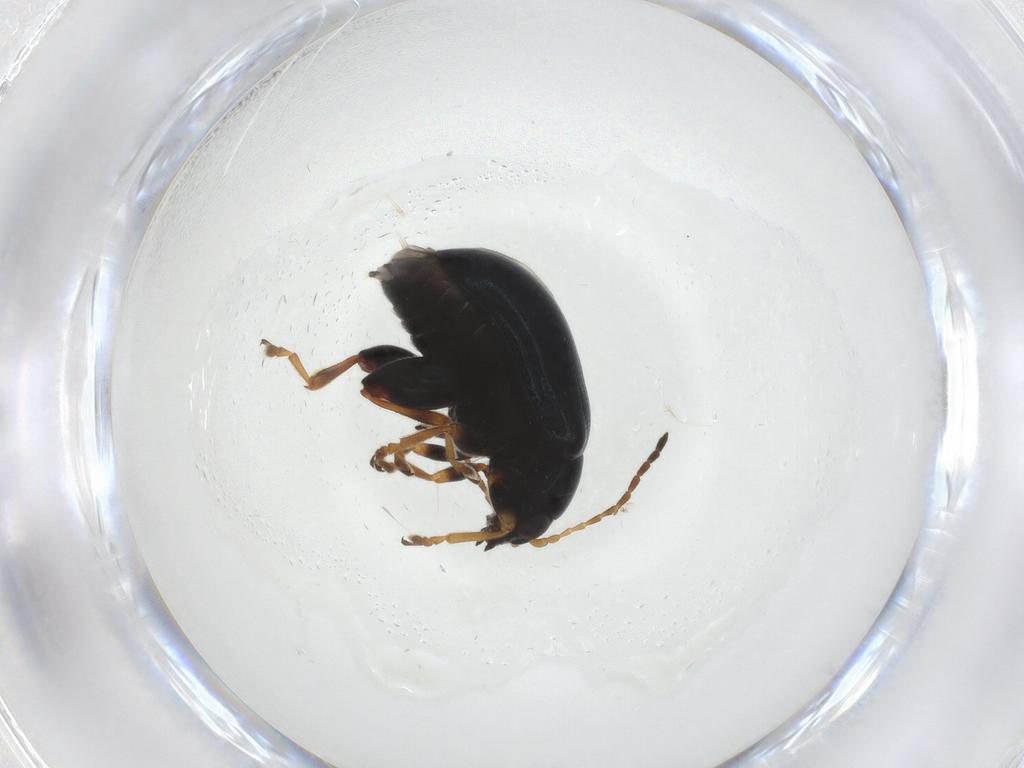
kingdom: Animalia
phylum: Arthropoda
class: Insecta
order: Coleoptera
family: Chrysomelidae
